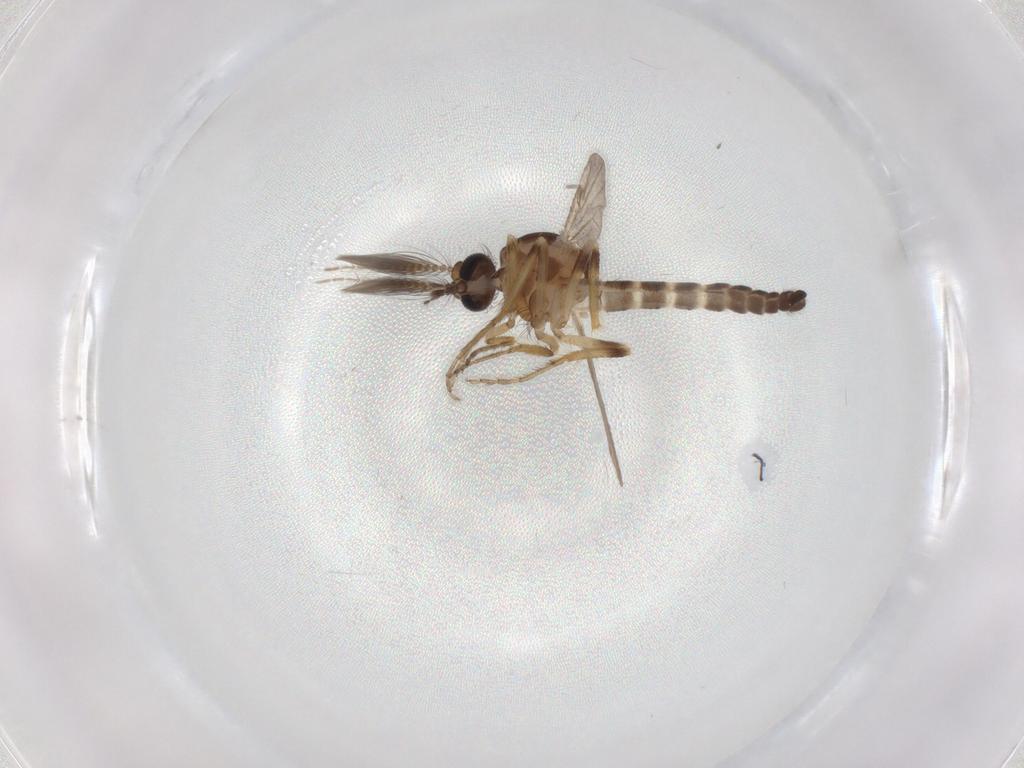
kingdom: Animalia
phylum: Arthropoda
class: Insecta
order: Diptera
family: Ceratopogonidae
